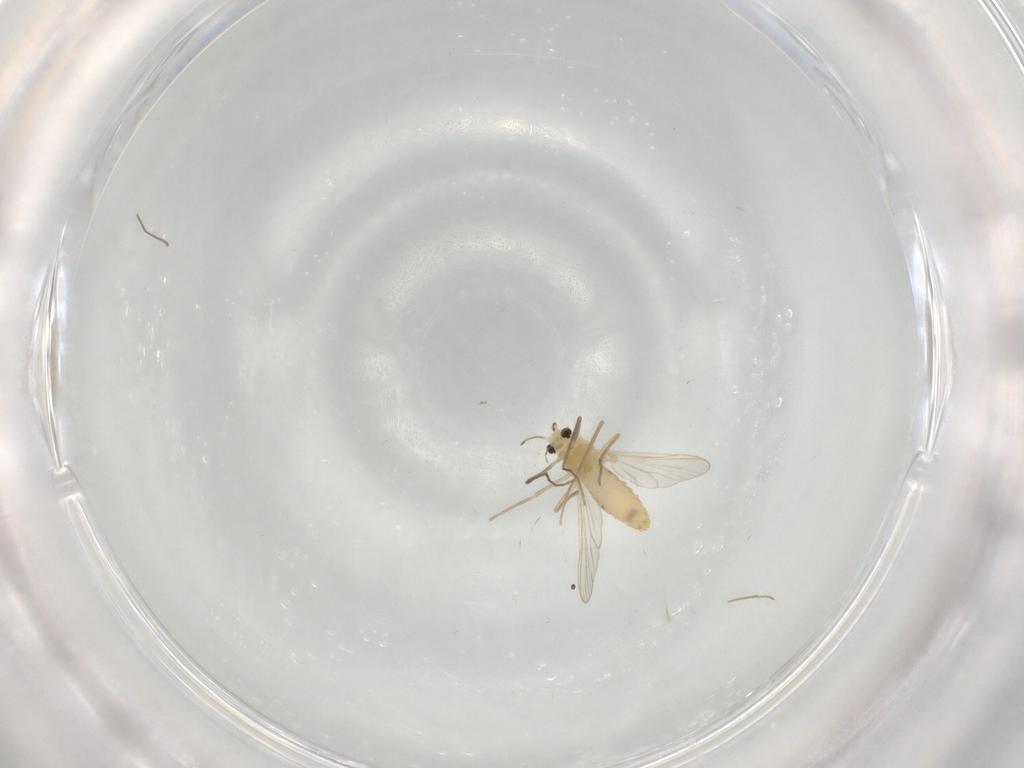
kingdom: Animalia
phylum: Arthropoda
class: Insecta
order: Diptera
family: Chironomidae
